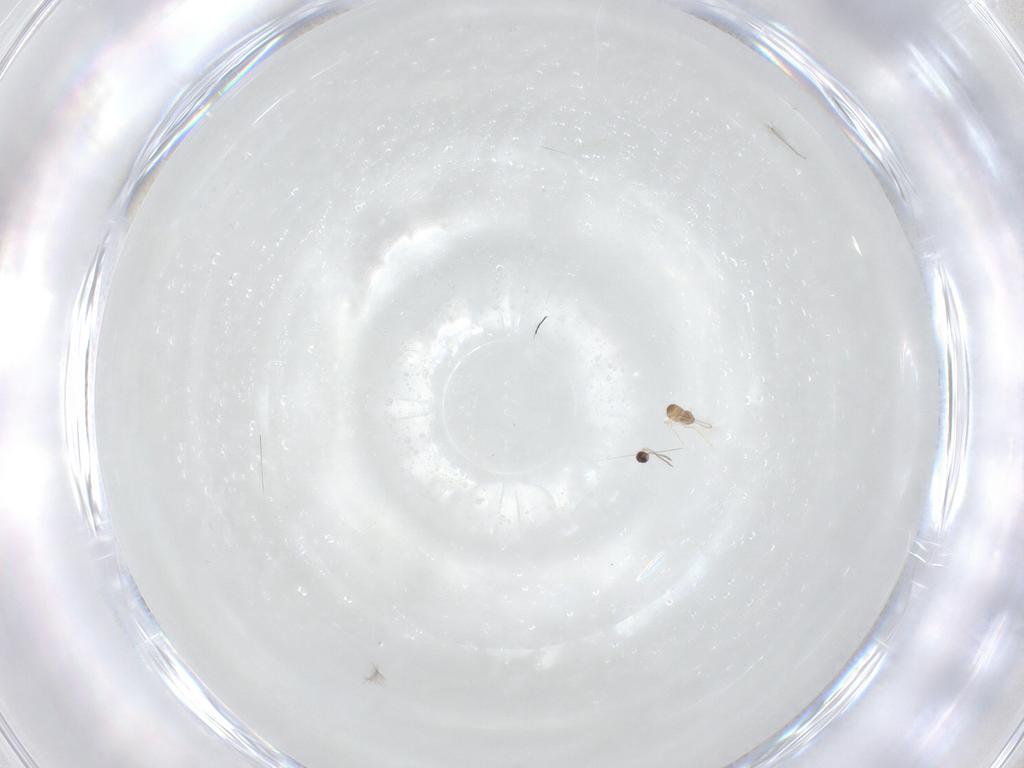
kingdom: Animalia
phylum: Arthropoda
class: Insecta
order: Hymenoptera
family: Mymaridae
